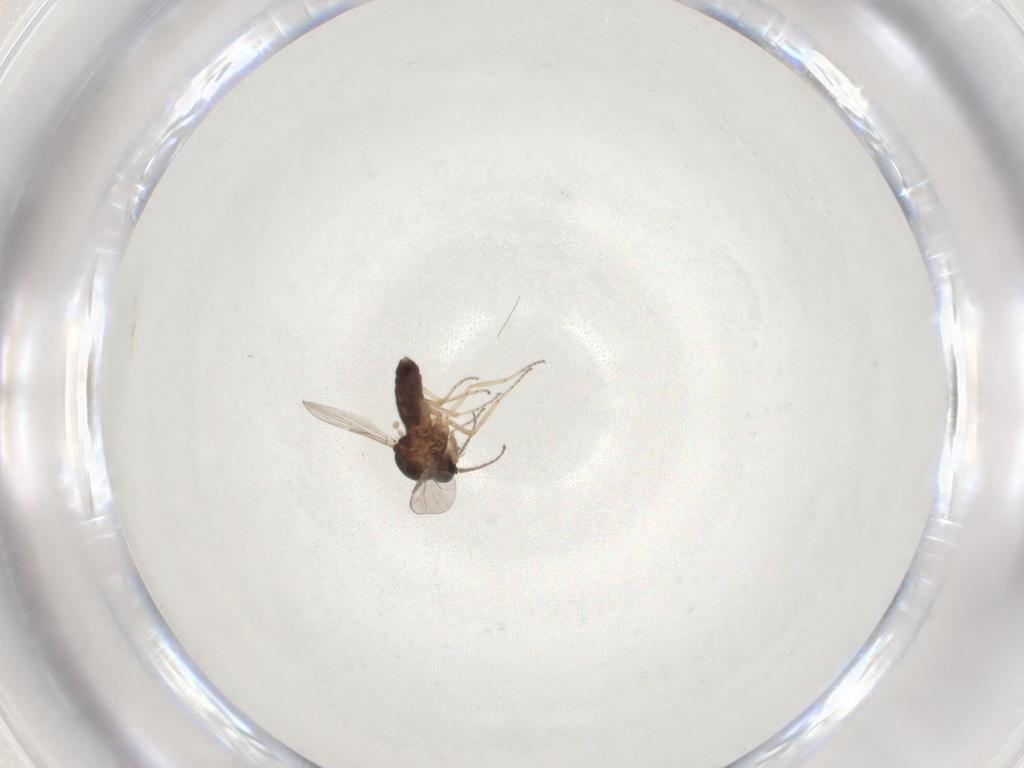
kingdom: Animalia
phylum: Arthropoda
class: Insecta
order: Diptera
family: Ceratopogonidae
